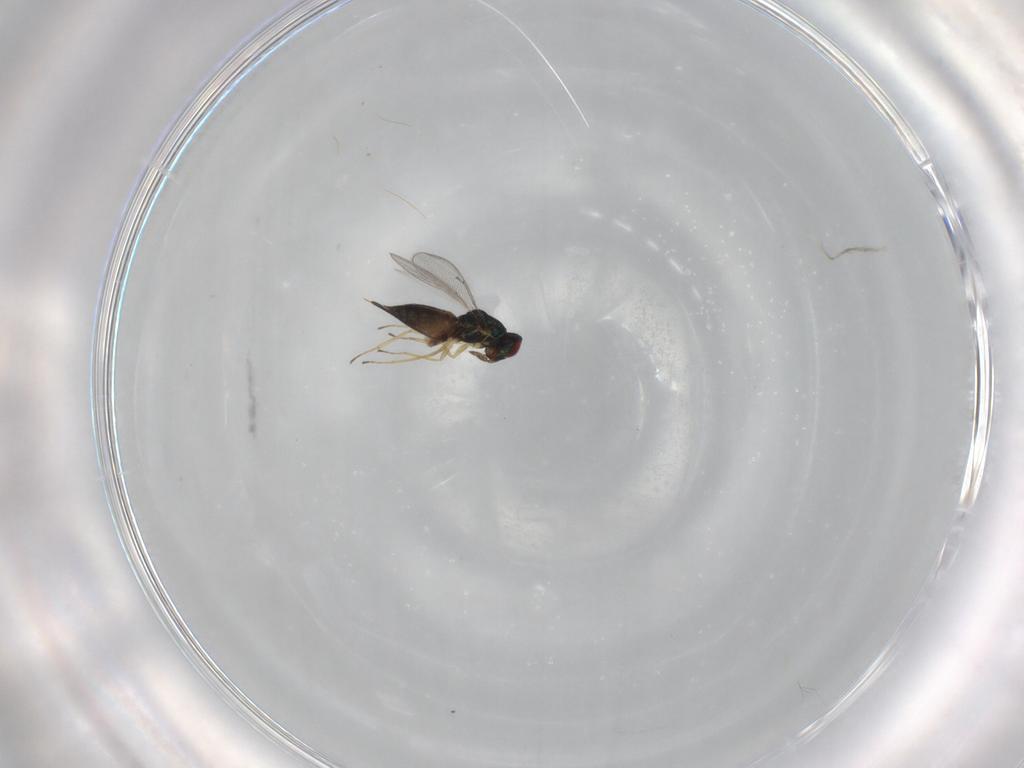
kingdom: Animalia
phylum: Arthropoda
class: Insecta
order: Hymenoptera
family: Eulophidae
